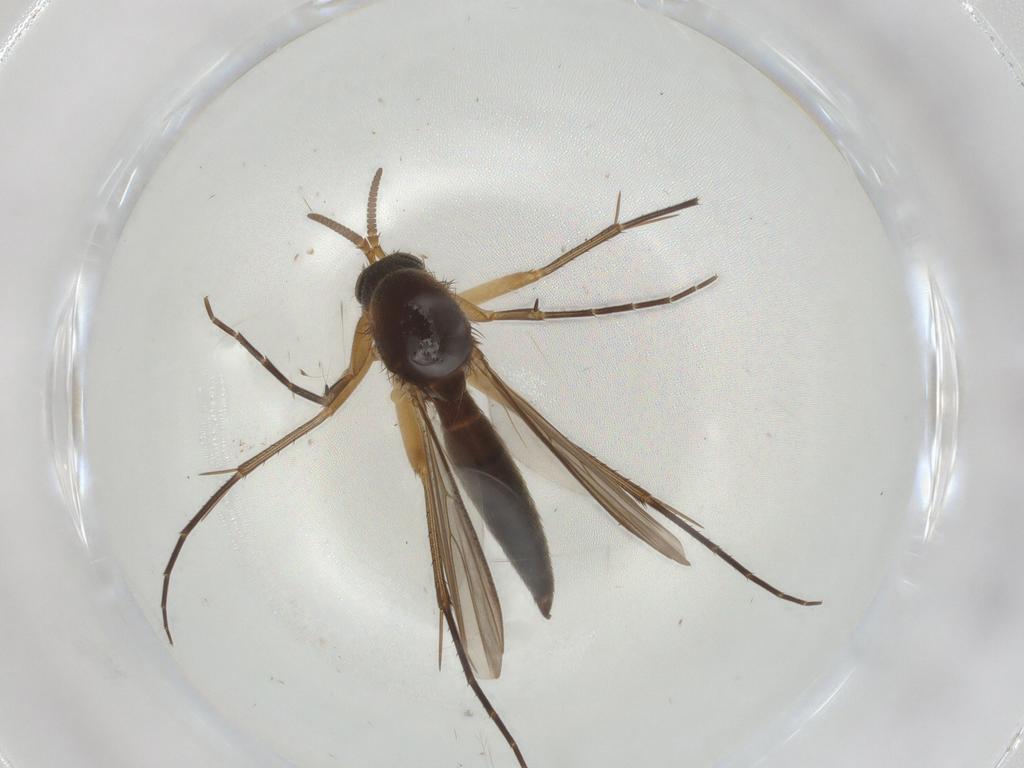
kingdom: Animalia
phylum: Arthropoda
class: Insecta
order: Diptera
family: Mycetophilidae
